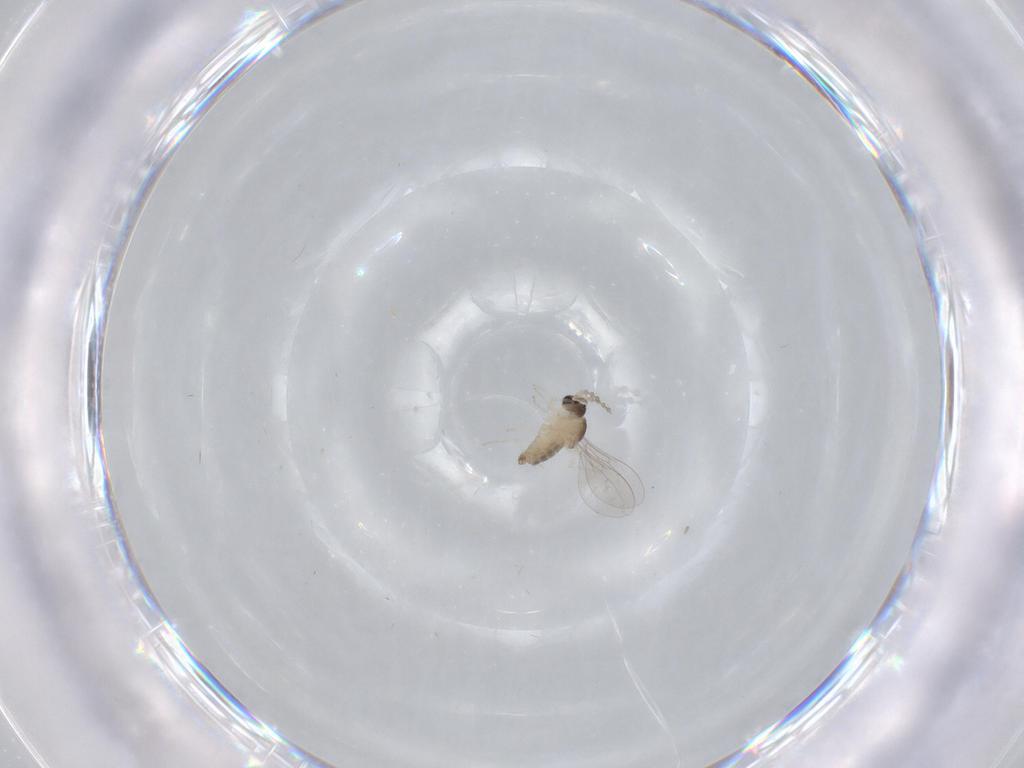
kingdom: Animalia
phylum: Arthropoda
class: Insecta
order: Diptera
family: Cecidomyiidae
